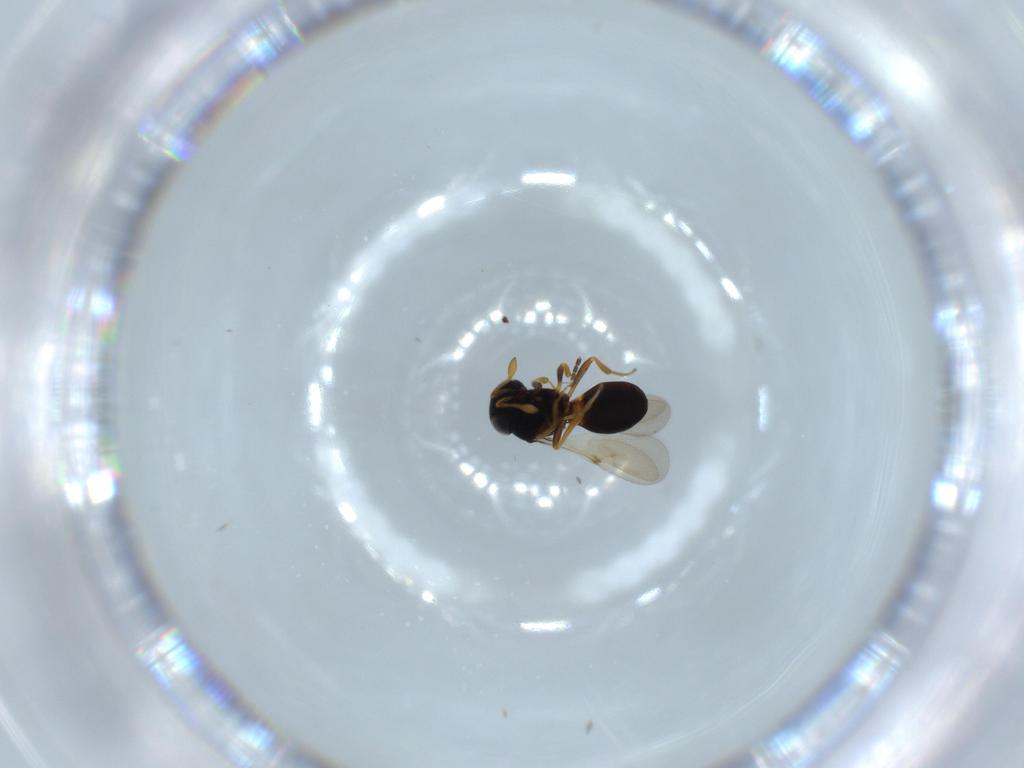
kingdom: Animalia
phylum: Arthropoda
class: Insecta
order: Hymenoptera
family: Scelionidae
